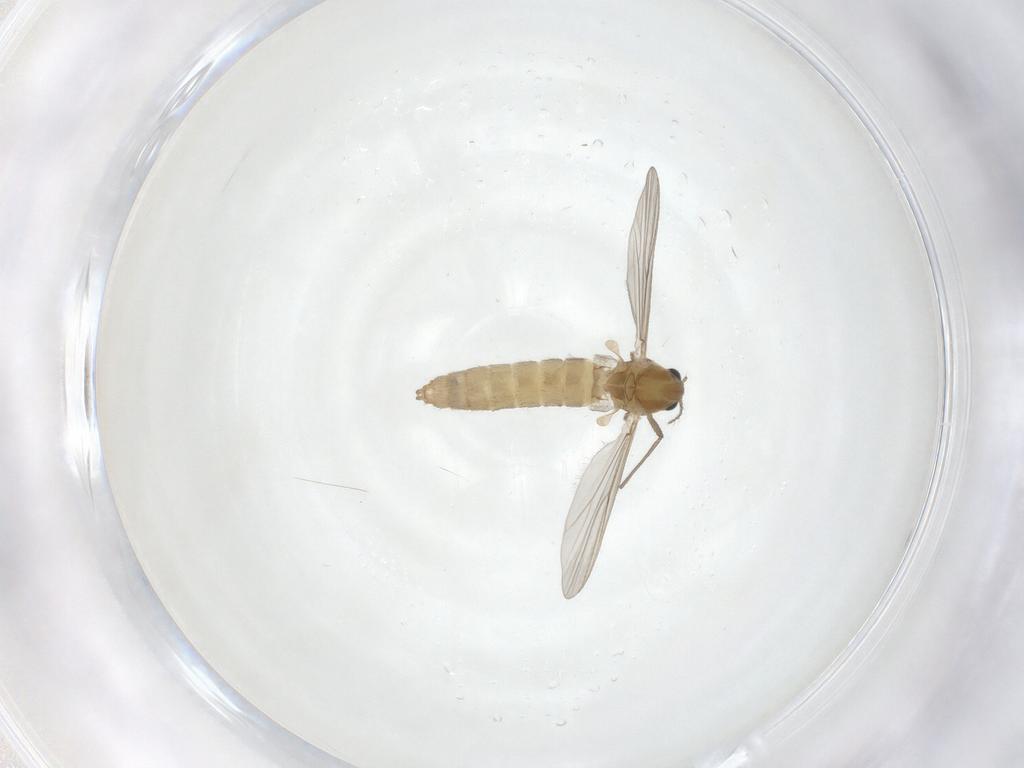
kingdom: Animalia
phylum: Arthropoda
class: Insecta
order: Diptera
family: Chironomidae
